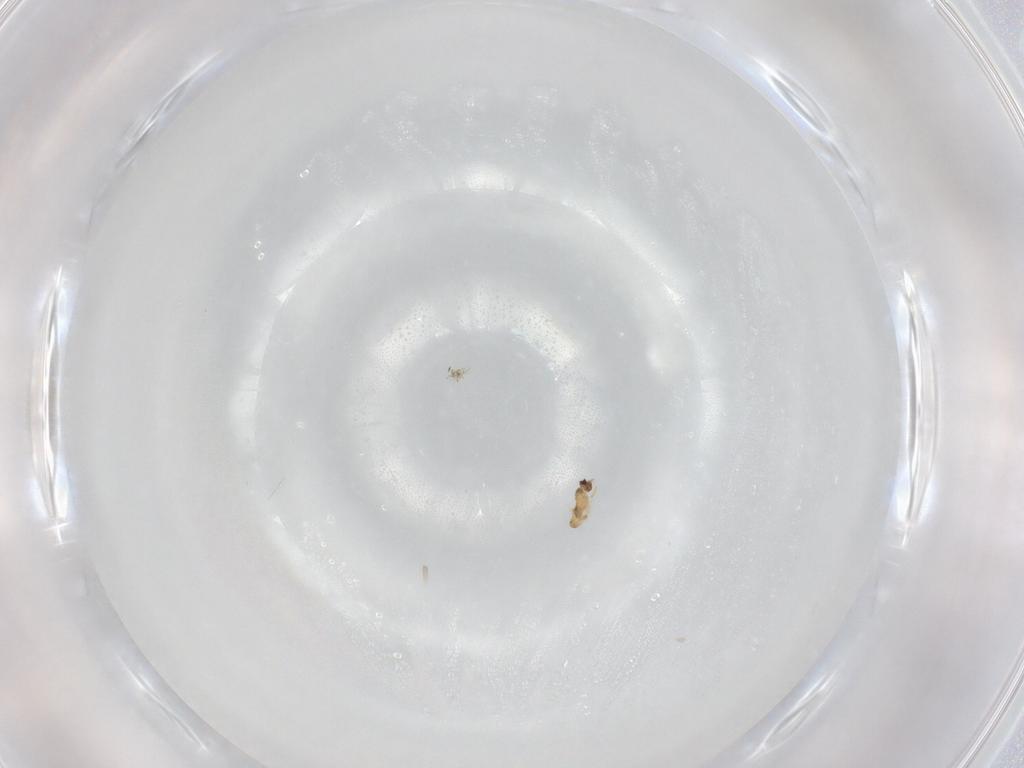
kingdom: Animalia
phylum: Arthropoda
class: Insecta
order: Hymenoptera
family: Mymaridae
